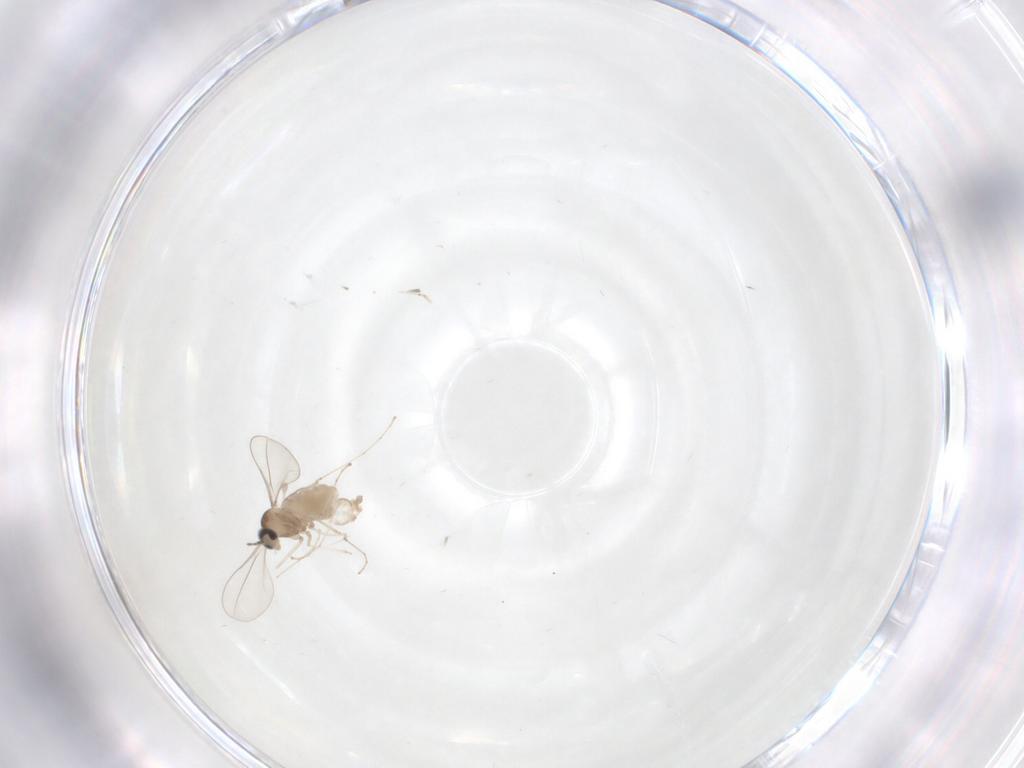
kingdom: Animalia
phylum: Arthropoda
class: Insecta
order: Diptera
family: Cecidomyiidae
